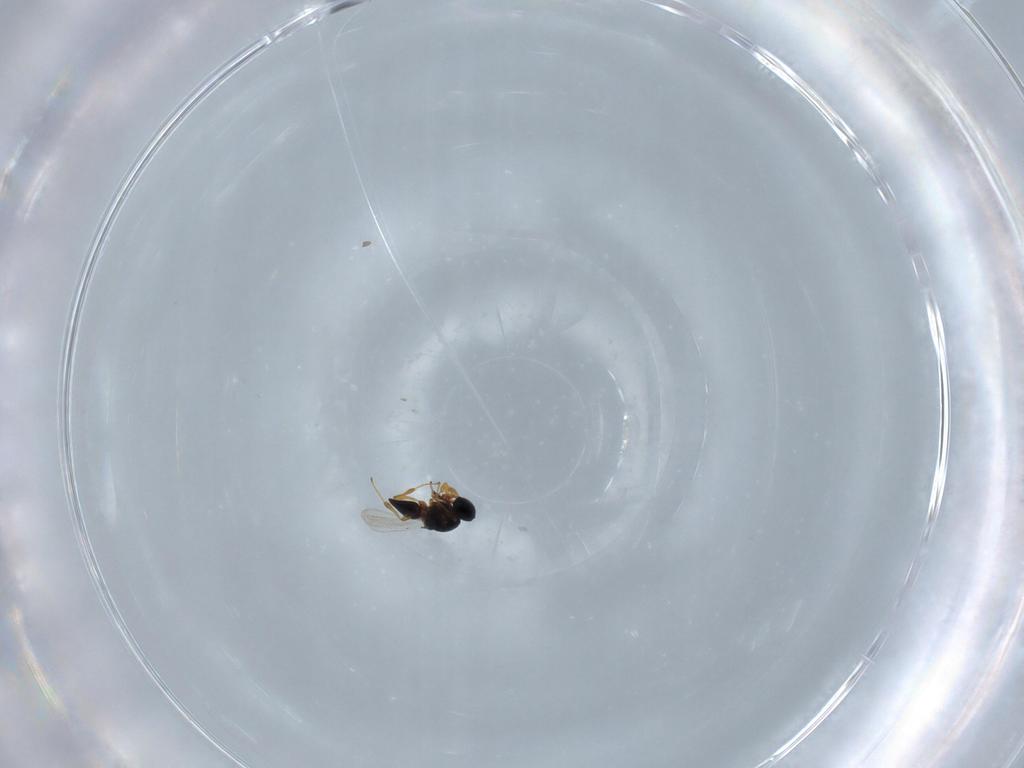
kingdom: Animalia
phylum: Arthropoda
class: Insecta
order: Hymenoptera
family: Platygastridae
